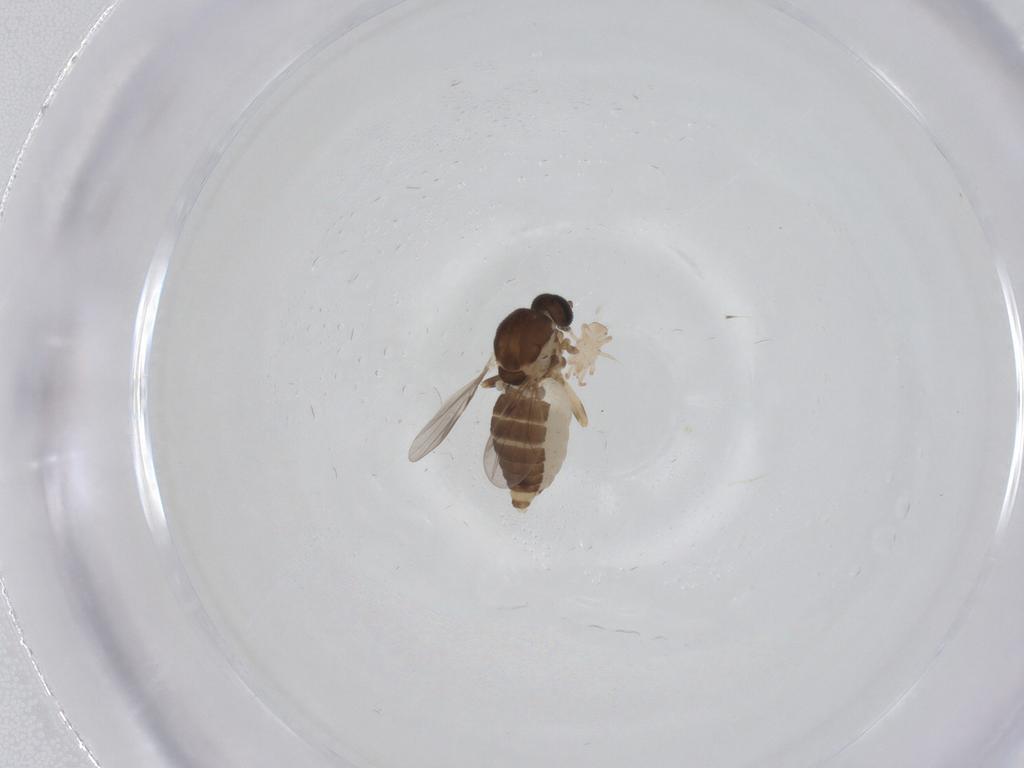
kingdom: Animalia
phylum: Arthropoda
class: Insecta
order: Diptera
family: Ceratopogonidae
